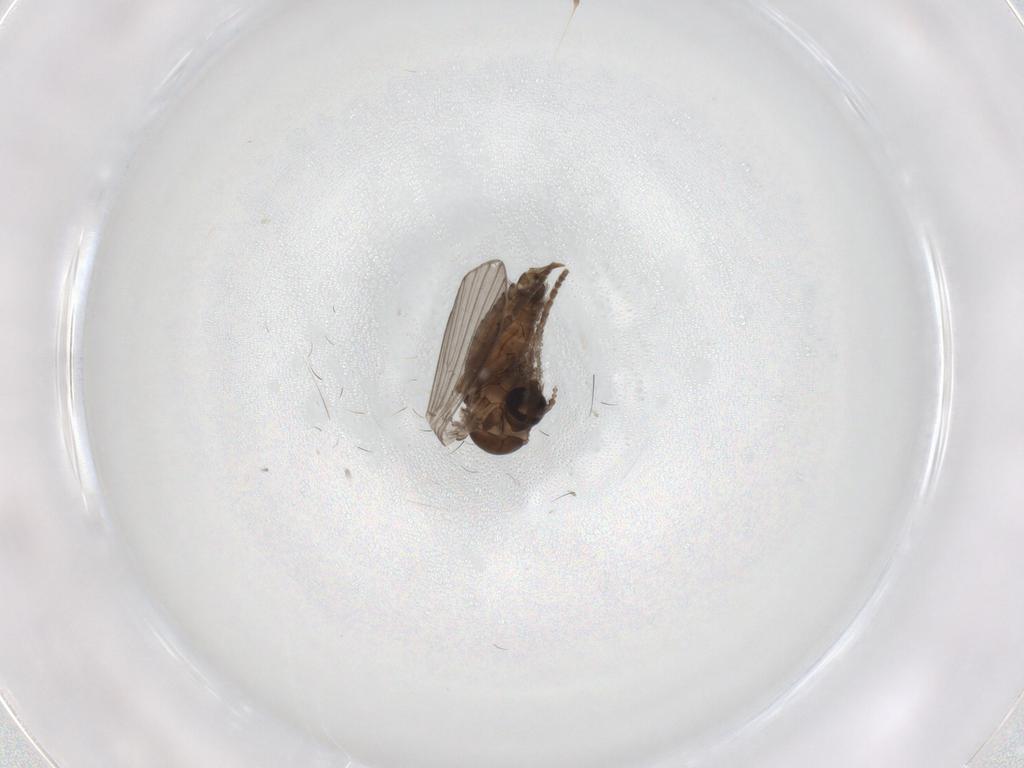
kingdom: Animalia
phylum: Arthropoda
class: Insecta
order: Diptera
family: Psychodidae
